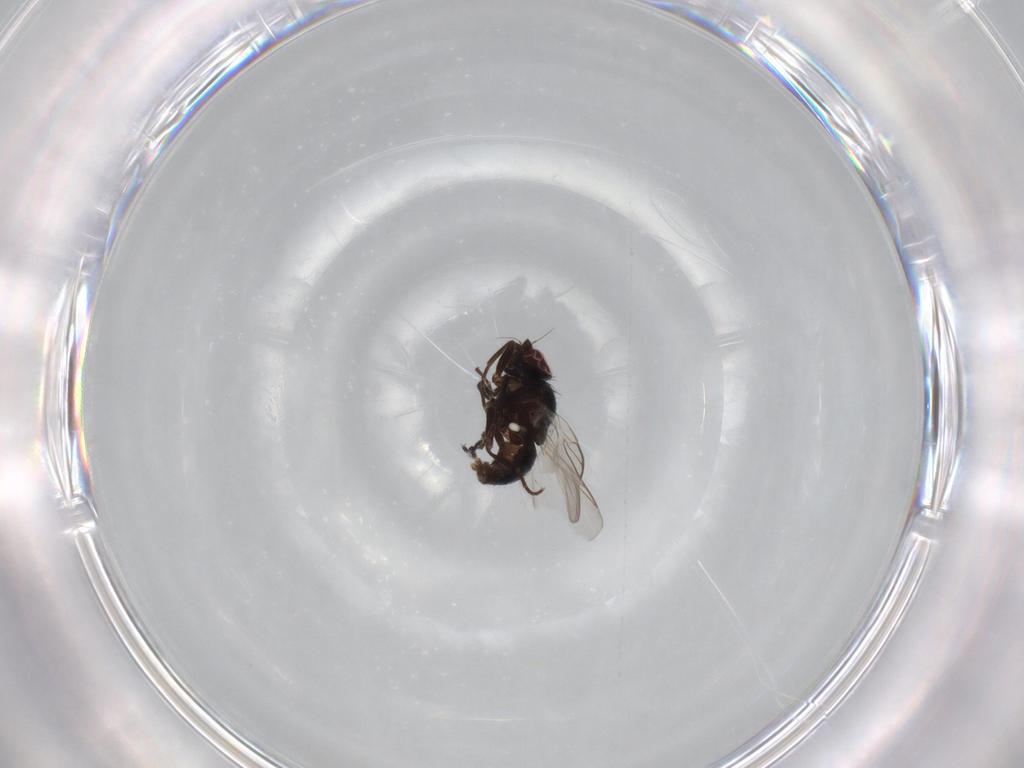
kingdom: Animalia
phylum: Arthropoda
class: Insecta
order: Diptera
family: Agromyzidae
